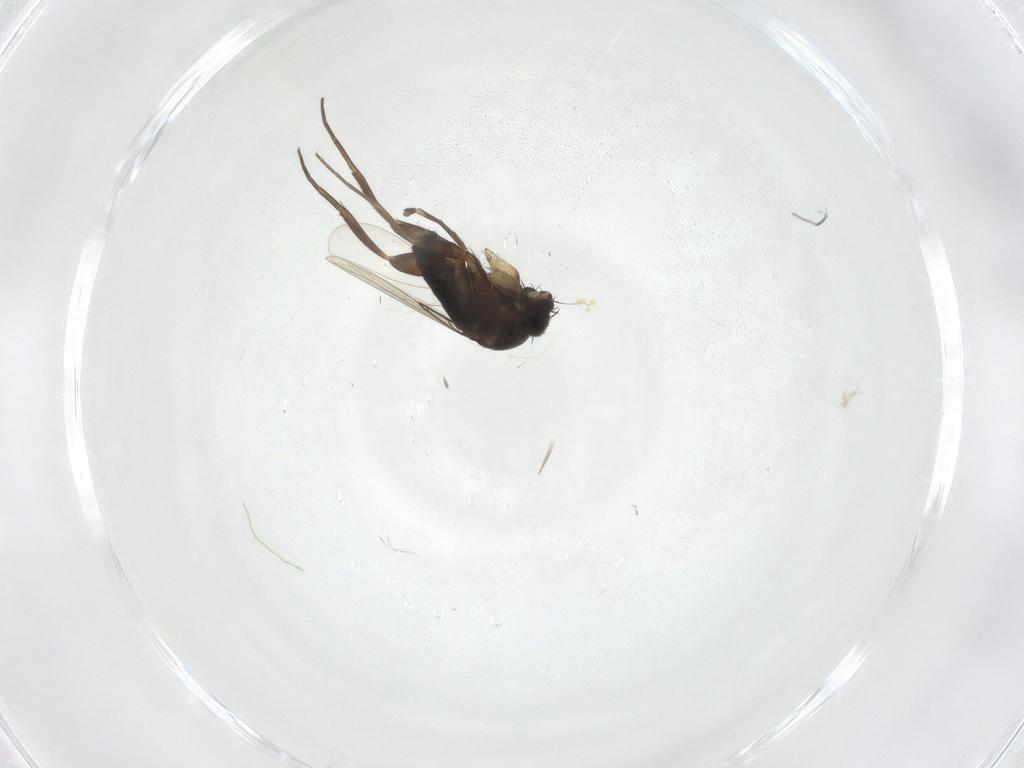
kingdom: Animalia
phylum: Arthropoda
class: Insecta
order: Diptera
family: Phoridae
